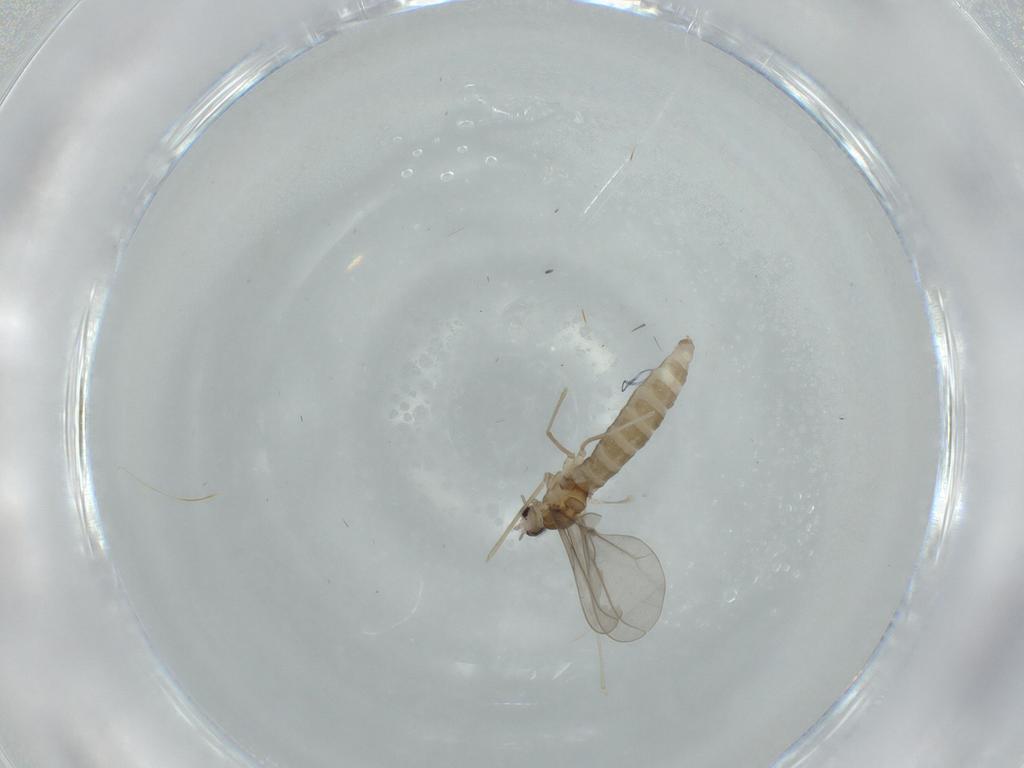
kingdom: Animalia
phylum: Arthropoda
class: Insecta
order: Diptera
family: Cecidomyiidae
